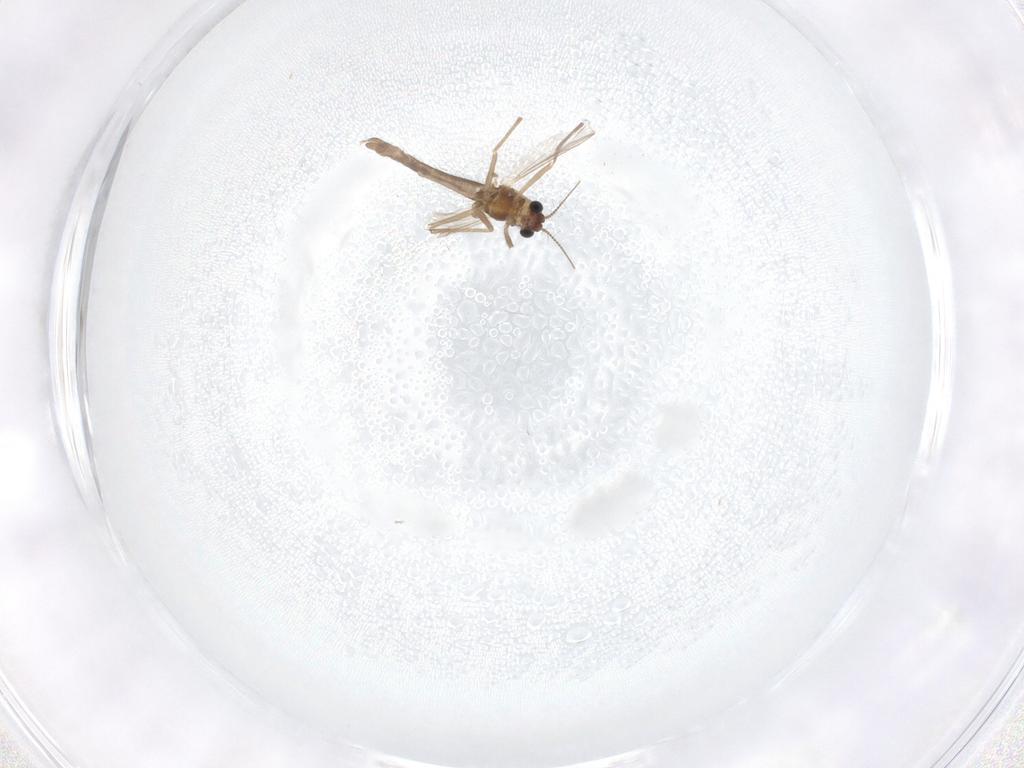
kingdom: Animalia
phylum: Arthropoda
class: Insecta
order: Diptera
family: Chironomidae
